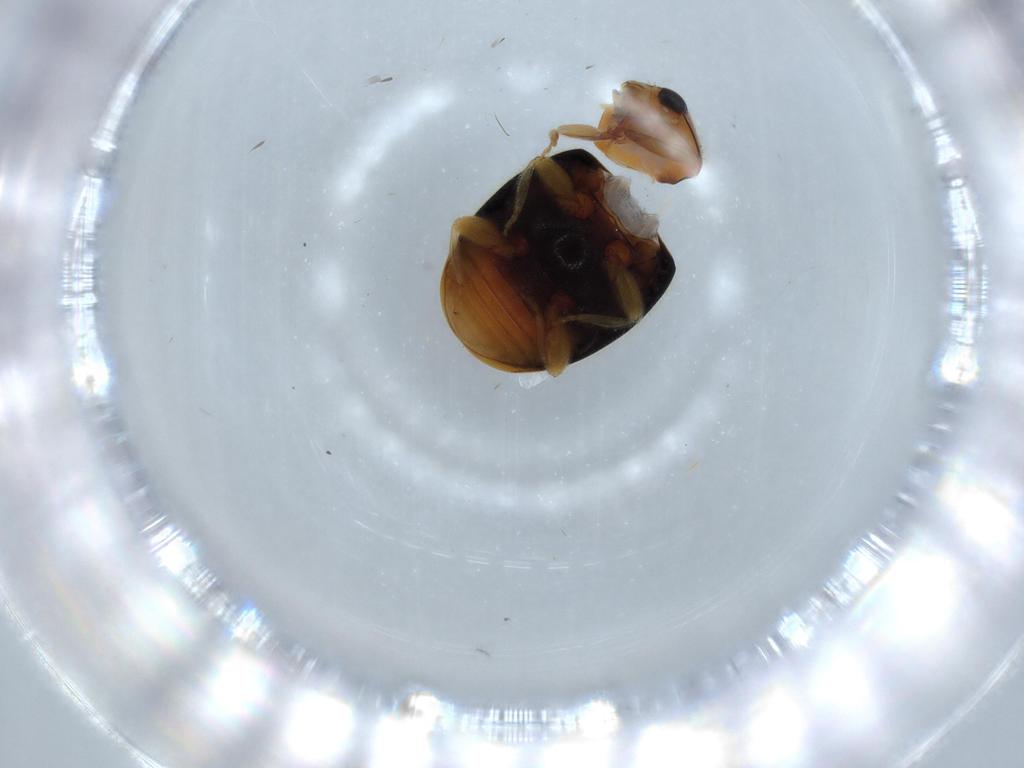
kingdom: Animalia
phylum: Arthropoda
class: Insecta
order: Coleoptera
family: Coccinellidae
